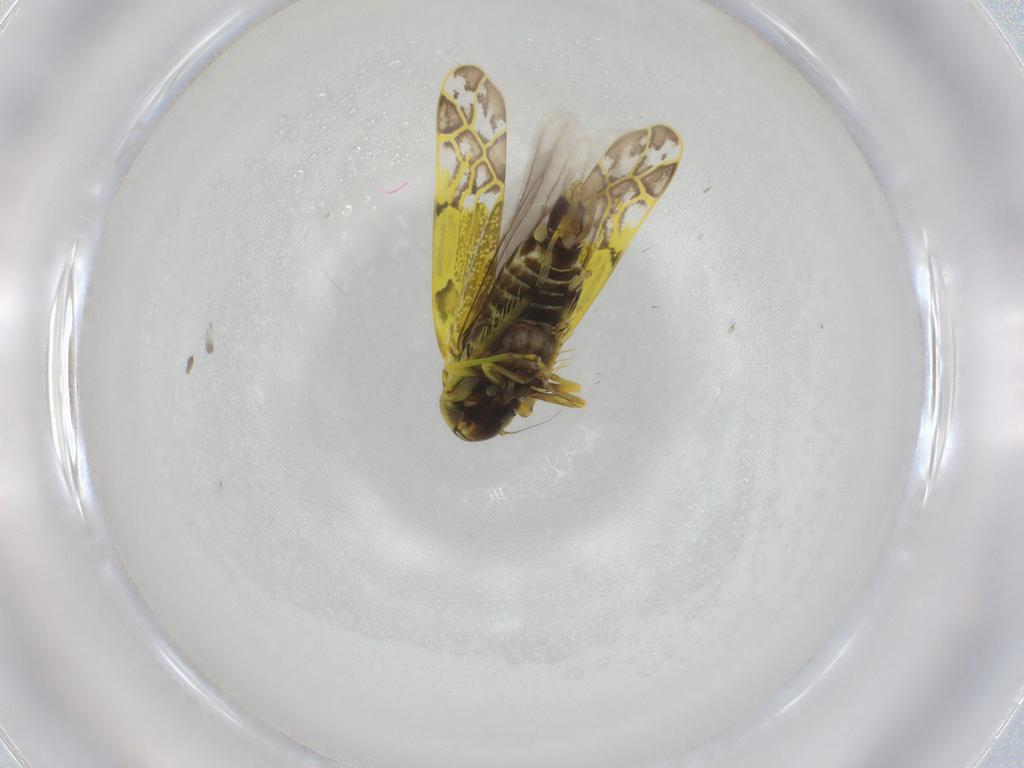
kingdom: Animalia
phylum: Arthropoda
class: Insecta
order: Hemiptera
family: Cicadellidae
